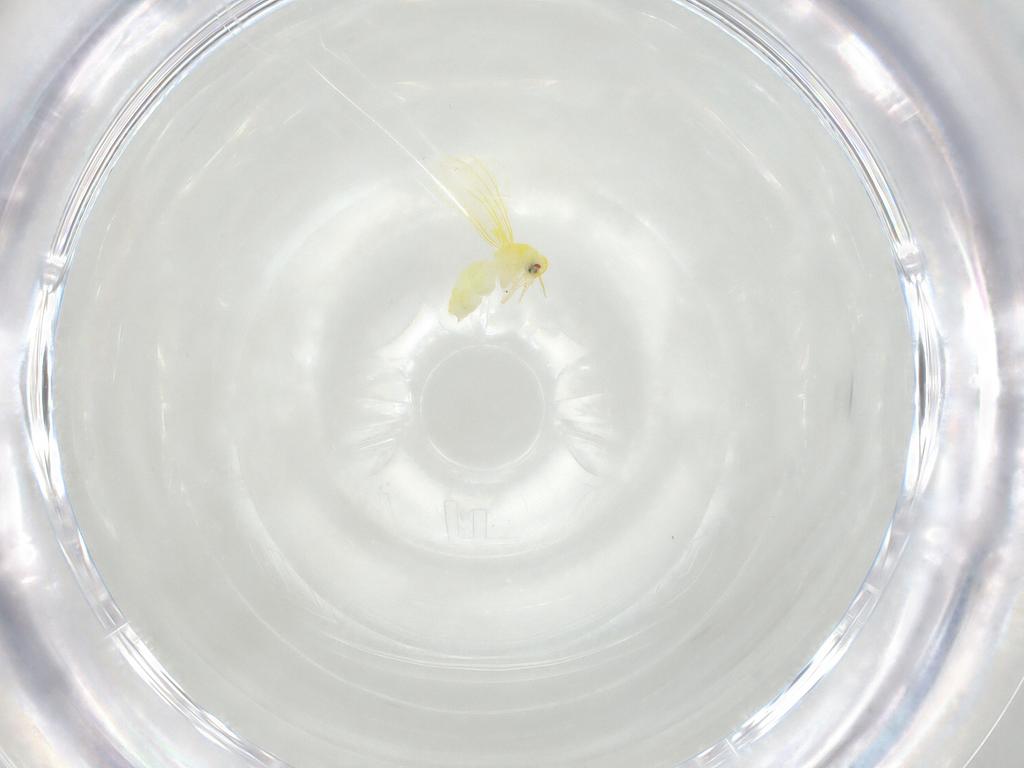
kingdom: Animalia
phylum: Arthropoda
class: Insecta
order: Hemiptera
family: Aleyrodidae
